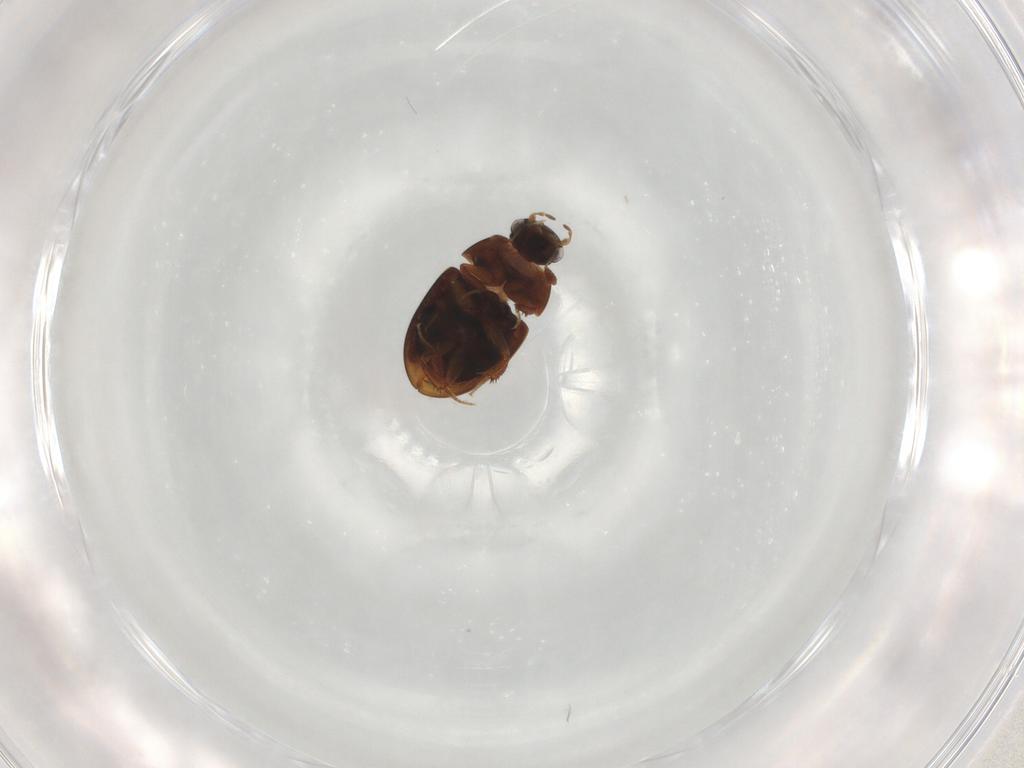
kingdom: Animalia
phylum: Arthropoda
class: Insecta
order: Coleoptera
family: Hydrophilidae
